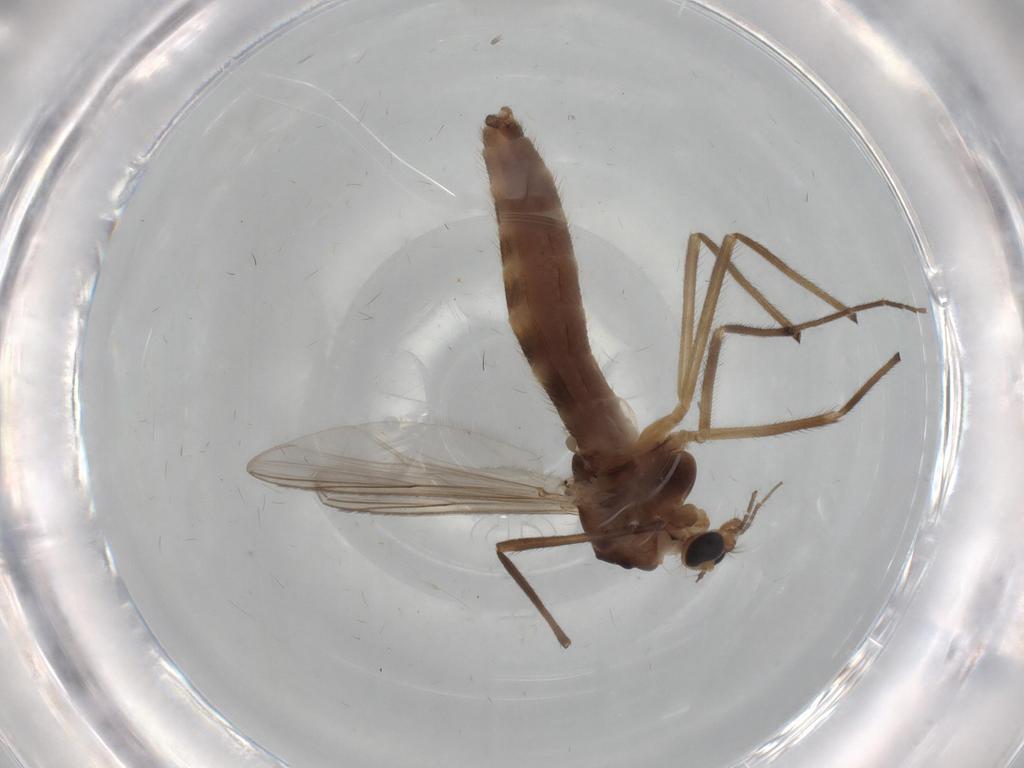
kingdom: Animalia
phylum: Arthropoda
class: Insecta
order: Diptera
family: Chironomidae
